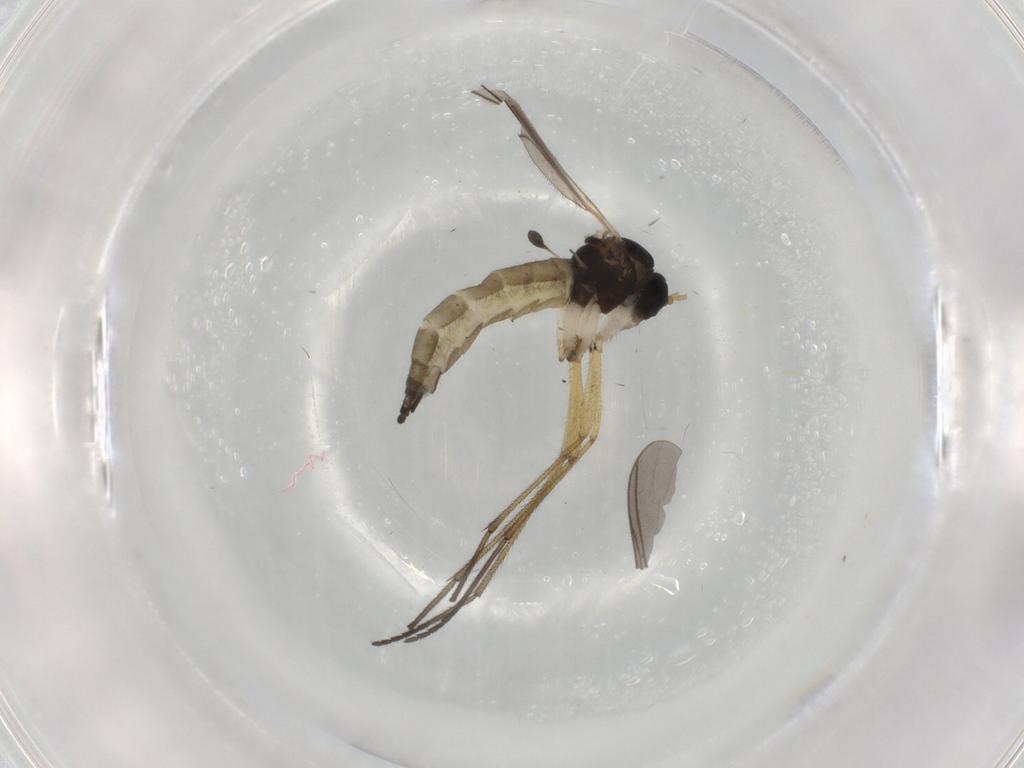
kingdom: Animalia
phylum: Arthropoda
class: Insecta
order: Diptera
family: Sciaridae
